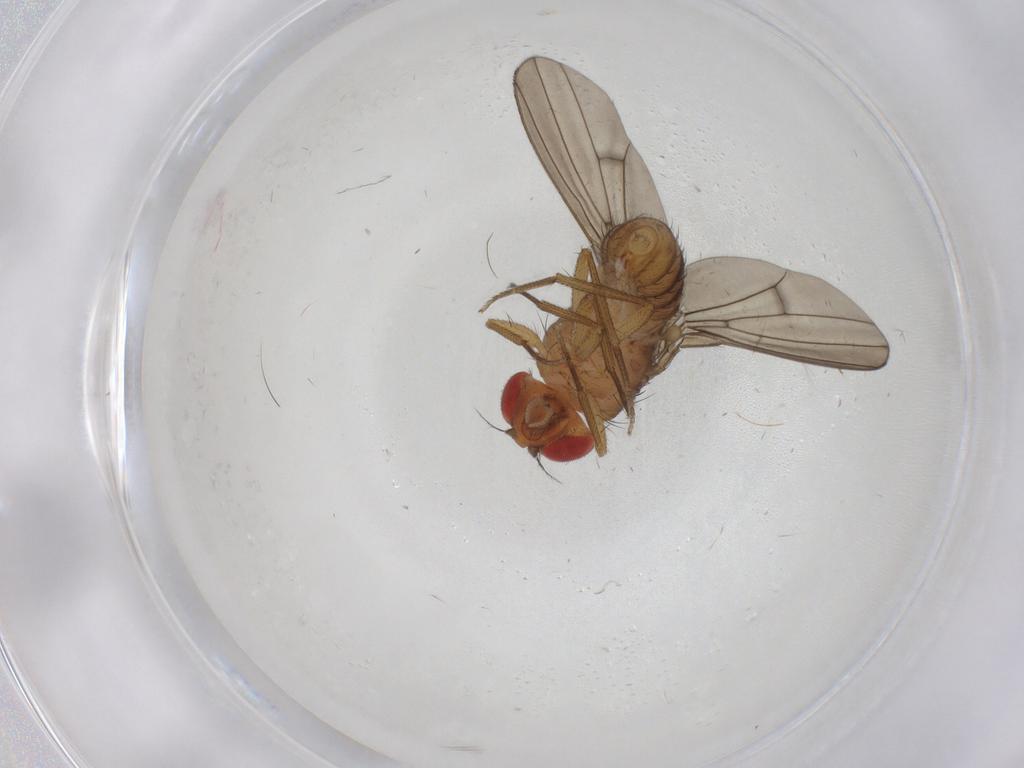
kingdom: Animalia
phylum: Arthropoda
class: Insecta
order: Diptera
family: Drosophilidae
